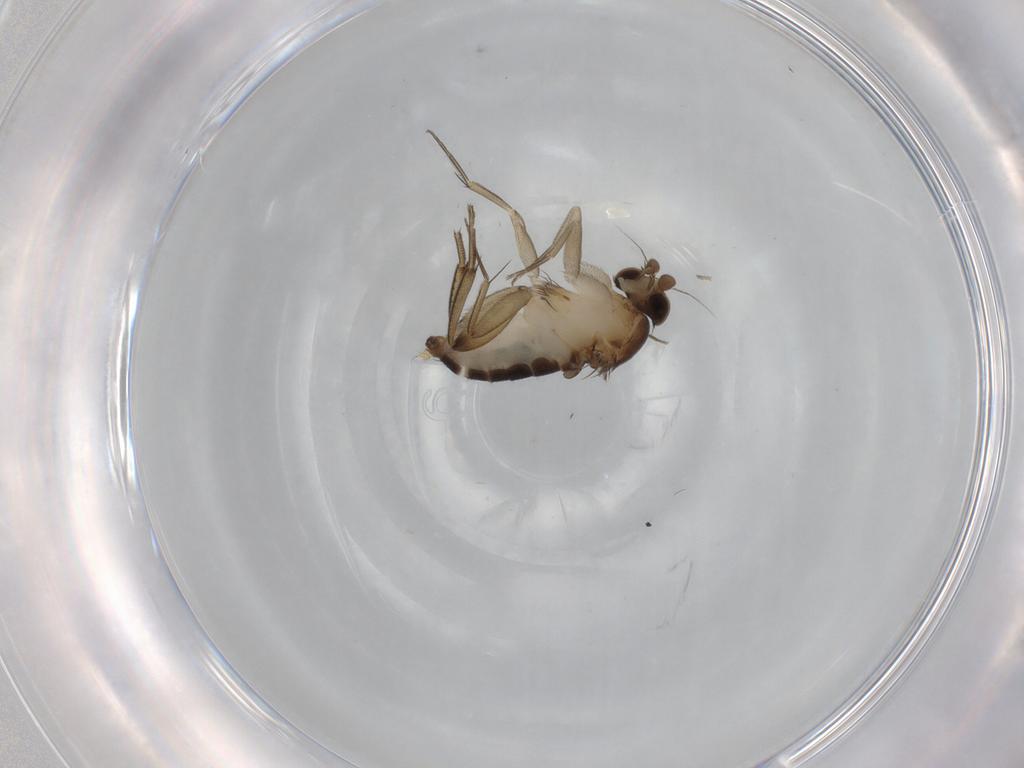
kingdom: Animalia
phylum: Arthropoda
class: Insecta
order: Diptera
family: Phoridae
